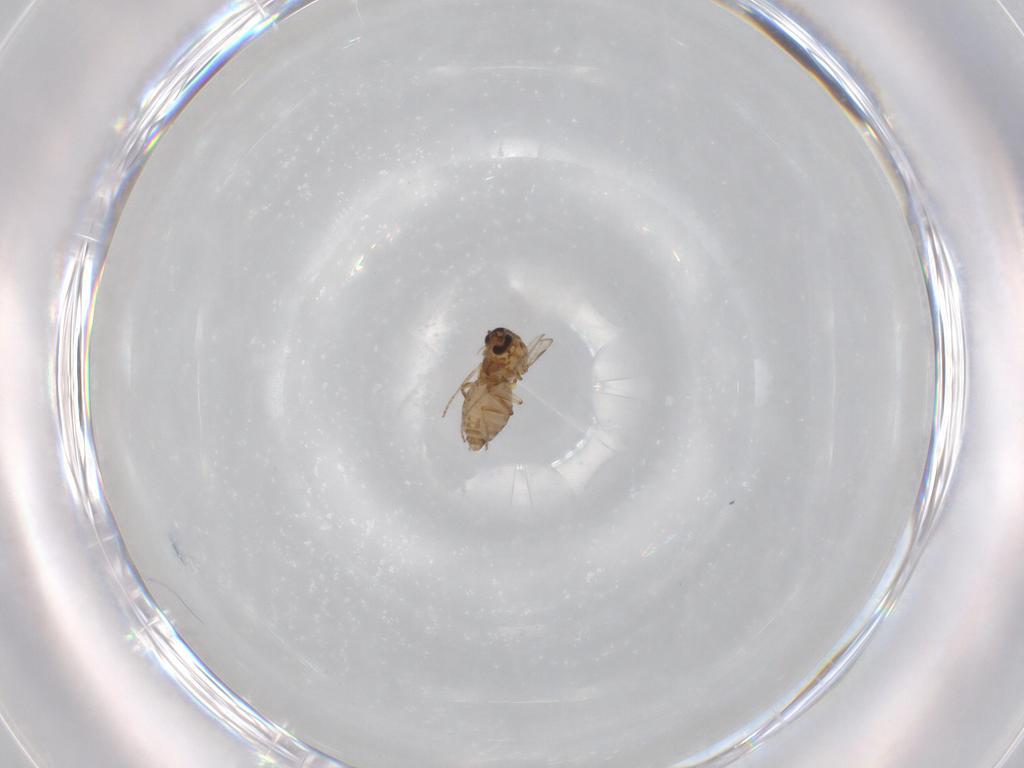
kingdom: Animalia
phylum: Arthropoda
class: Insecta
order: Diptera
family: Ceratopogonidae
